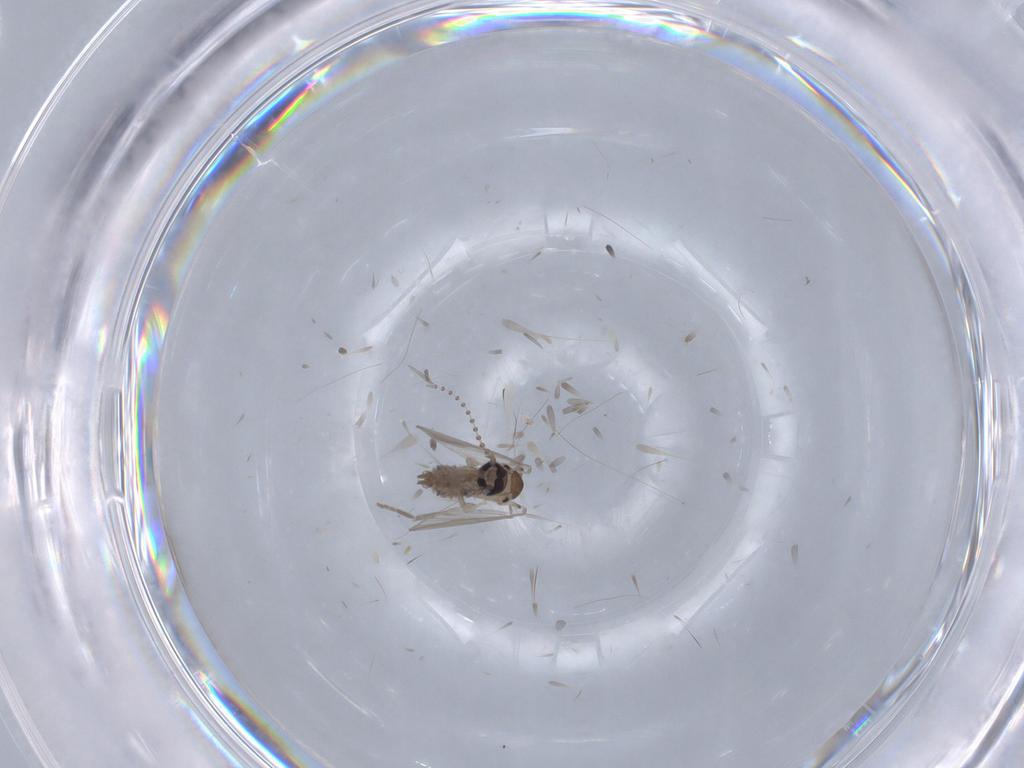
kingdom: Animalia
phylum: Arthropoda
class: Insecta
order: Diptera
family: Psychodidae
